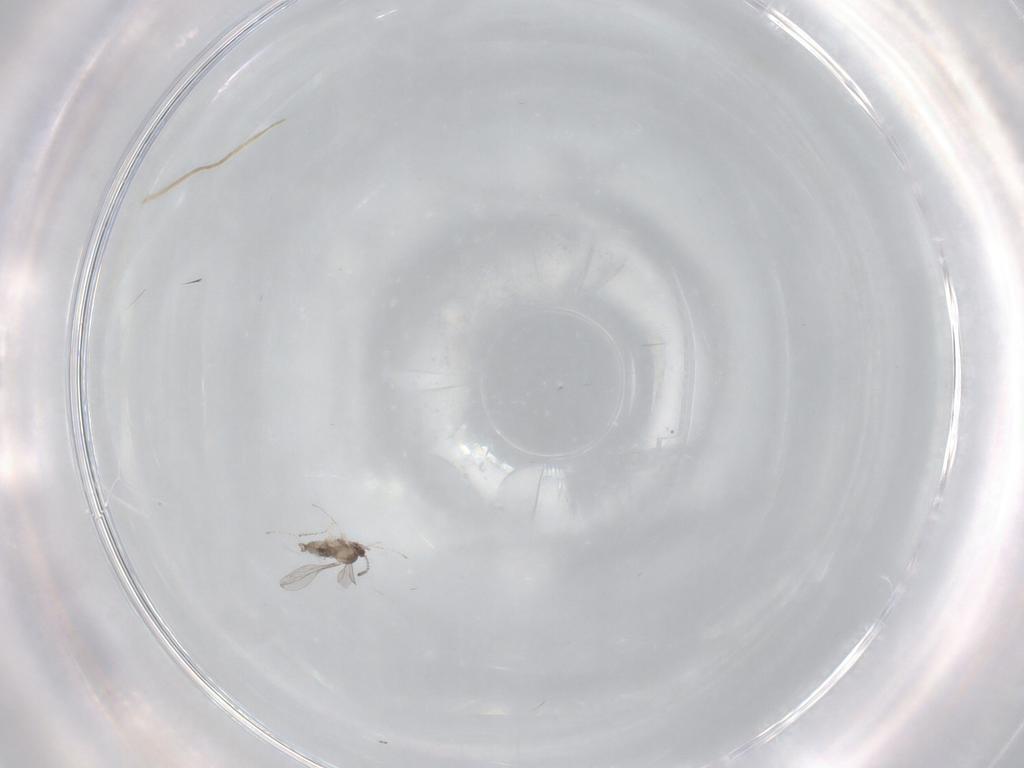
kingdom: Animalia
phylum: Arthropoda
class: Insecta
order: Diptera
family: Cecidomyiidae
